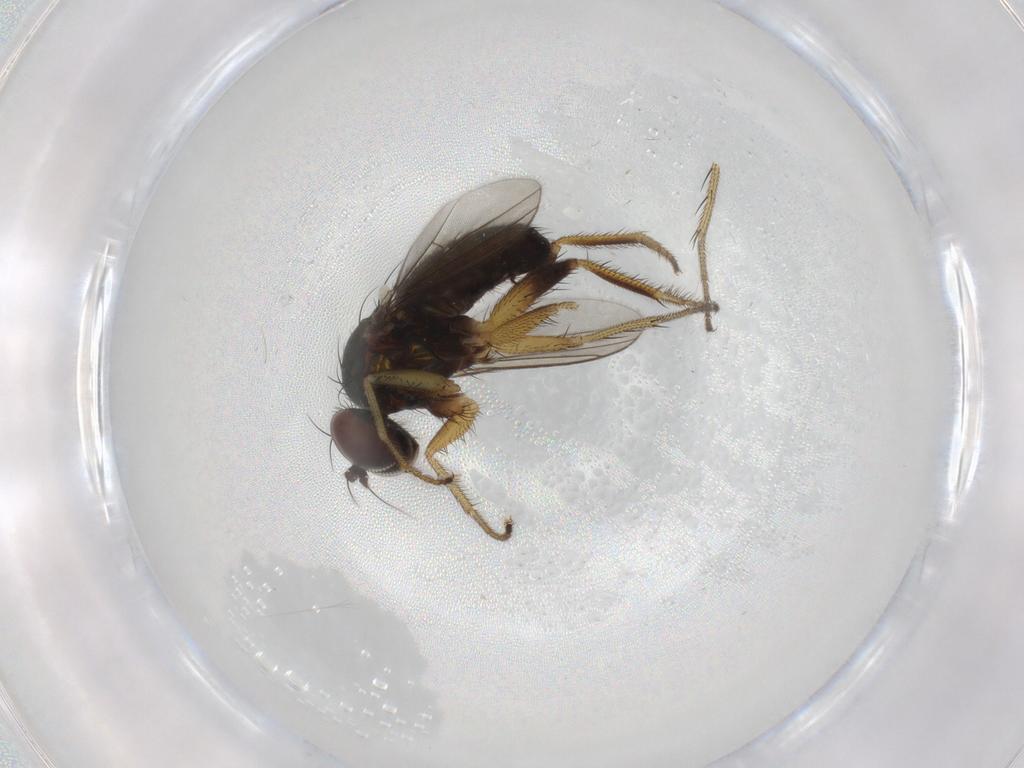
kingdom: Animalia
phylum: Arthropoda
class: Insecta
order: Diptera
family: Dolichopodidae
